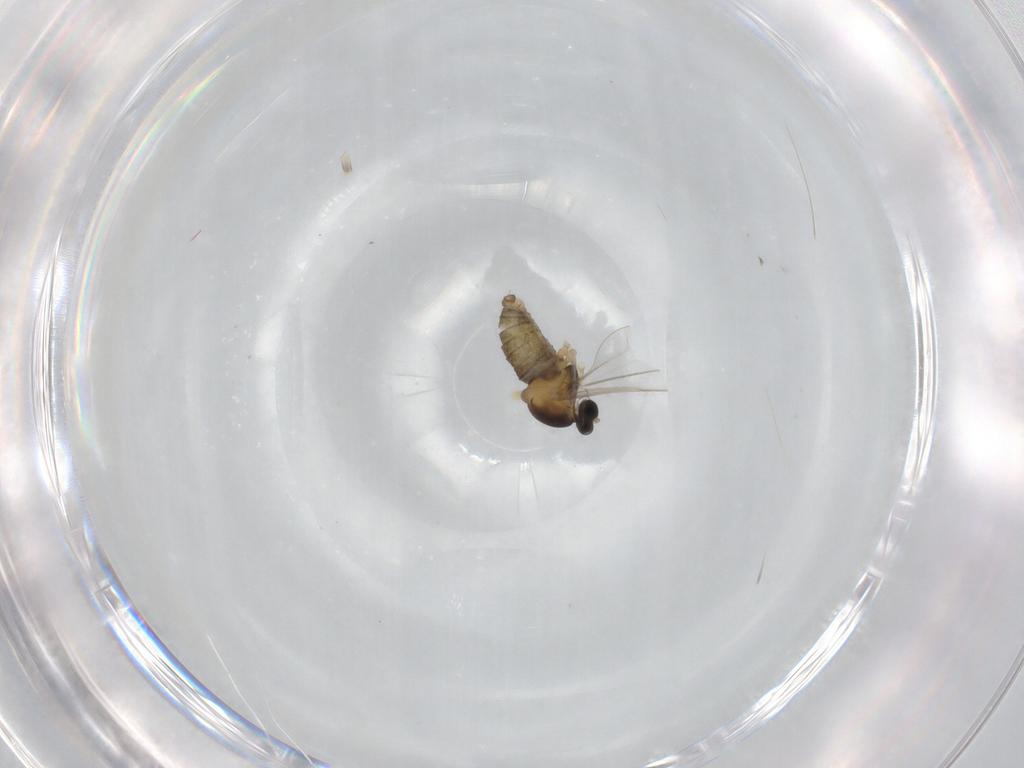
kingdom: Animalia
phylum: Arthropoda
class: Insecta
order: Diptera
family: Cecidomyiidae
